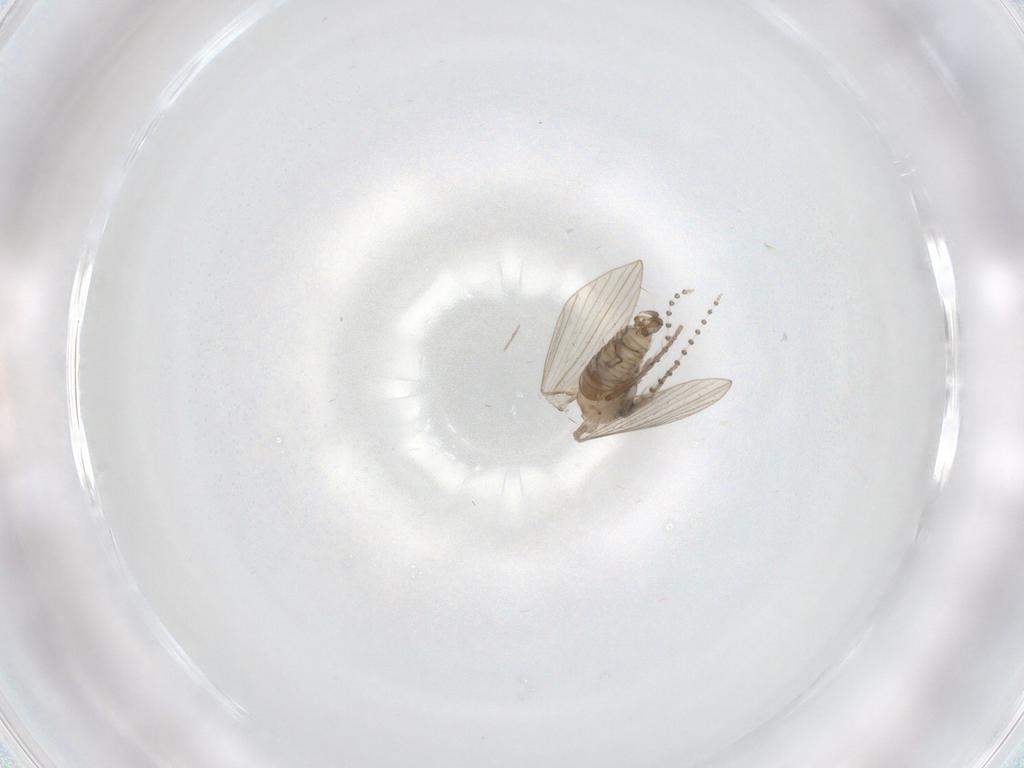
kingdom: Animalia
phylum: Arthropoda
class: Insecta
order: Diptera
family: Psychodidae
